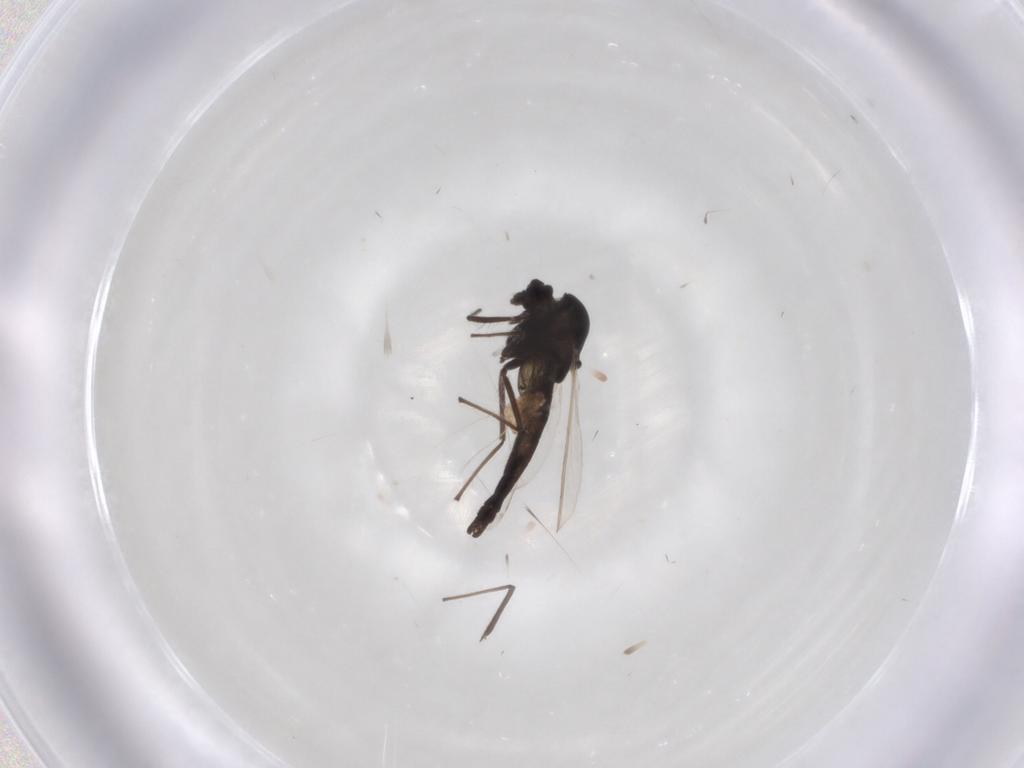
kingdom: Animalia
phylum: Arthropoda
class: Insecta
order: Diptera
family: Chironomidae
